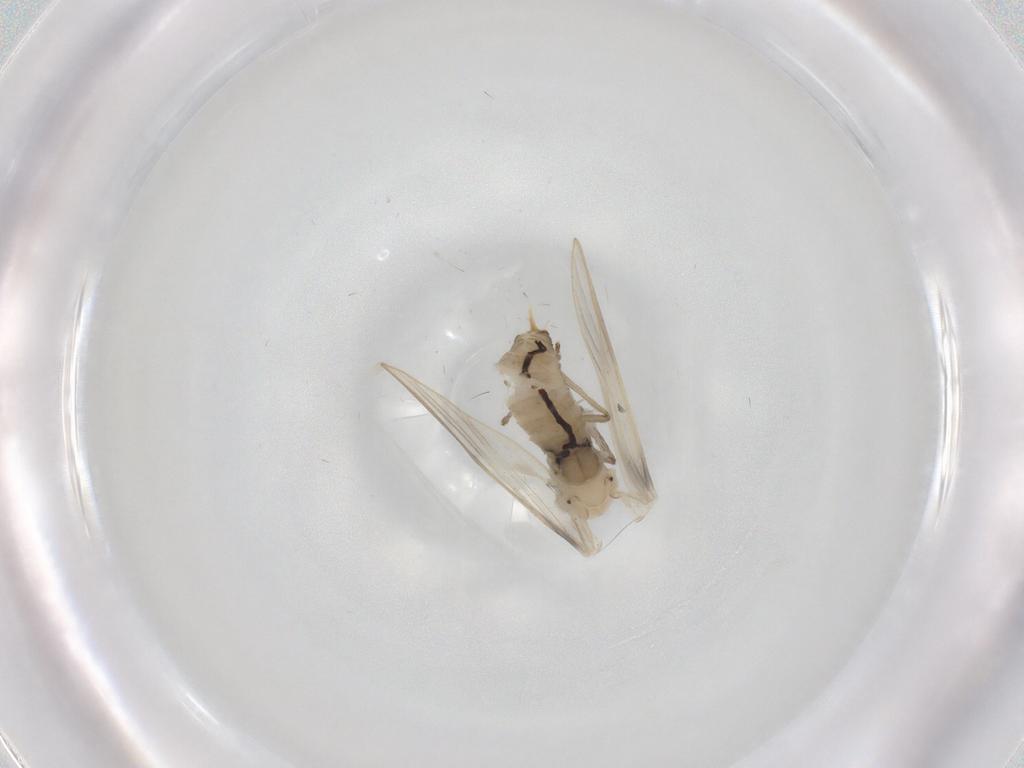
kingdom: Animalia
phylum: Arthropoda
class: Insecta
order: Diptera
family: Psychodidae
